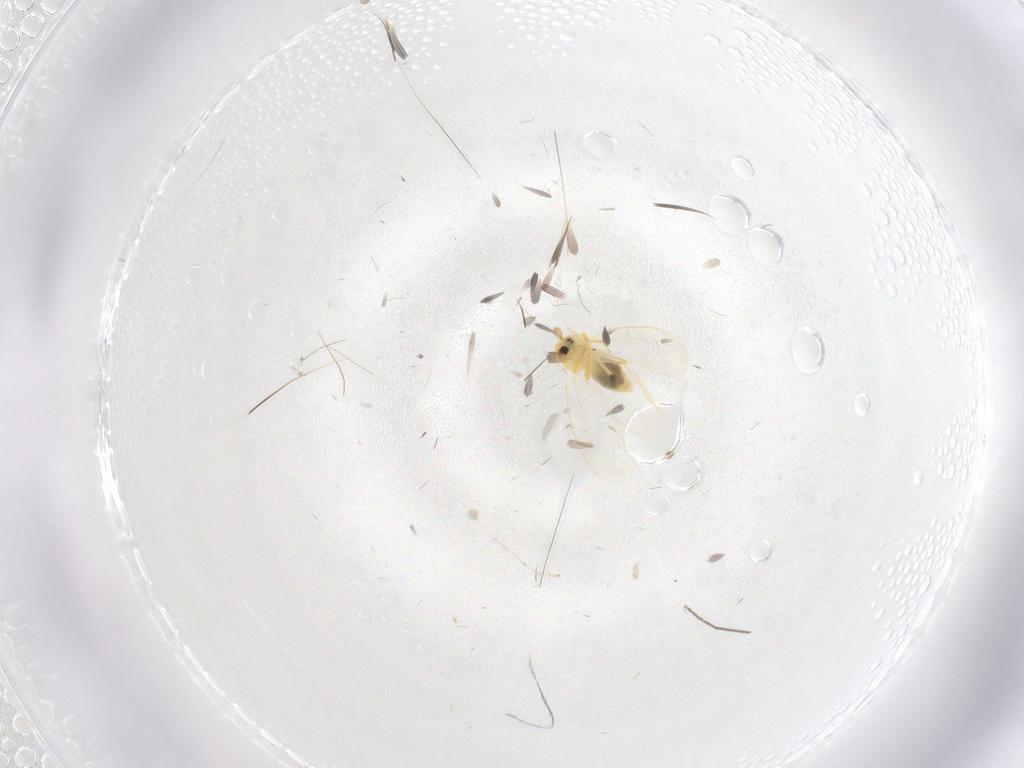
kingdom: Animalia
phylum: Arthropoda
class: Insecta
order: Hemiptera
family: Aleyrodidae
